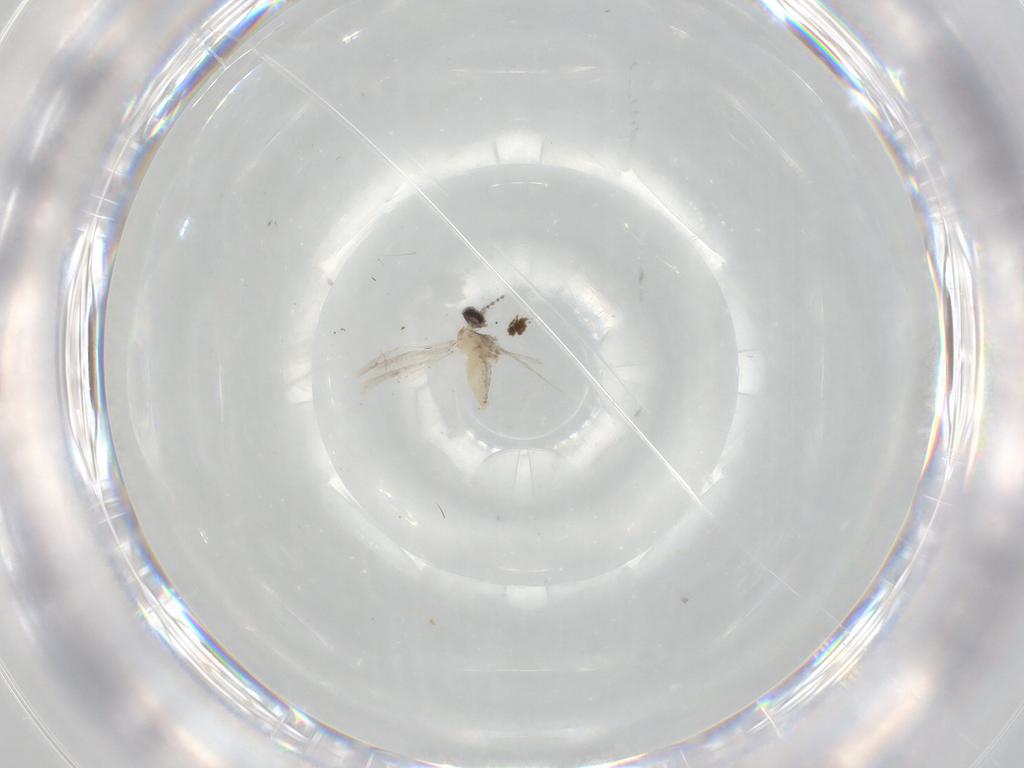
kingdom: Animalia
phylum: Arthropoda
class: Insecta
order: Diptera
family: Cecidomyiidae
